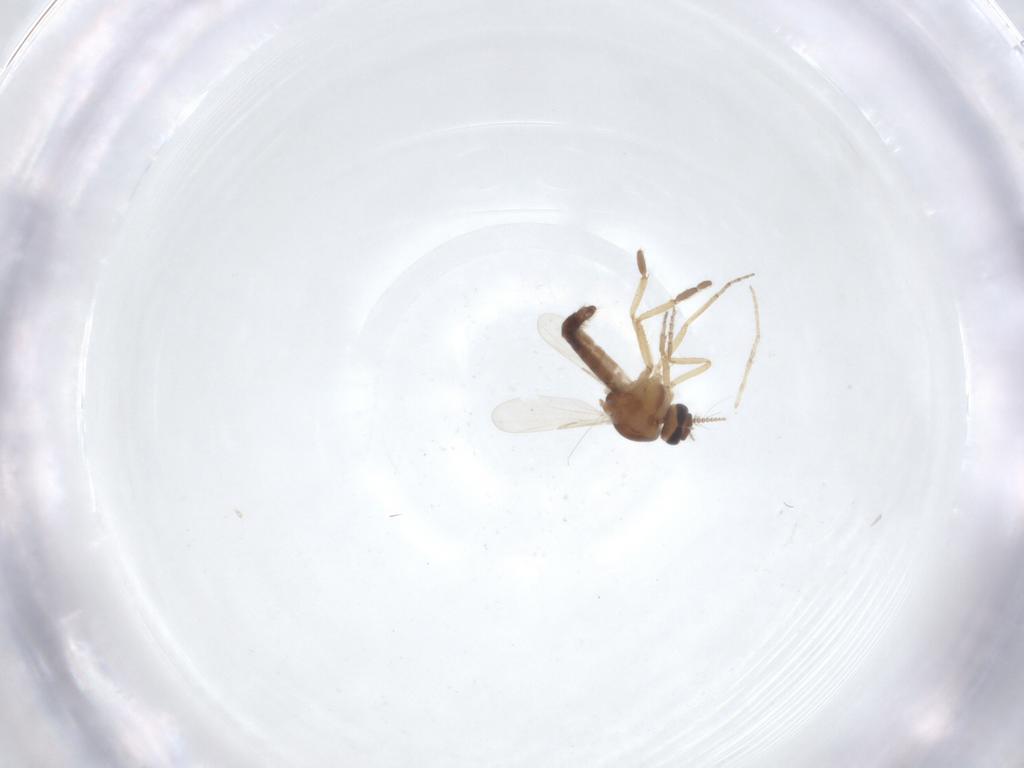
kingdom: Animalia
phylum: Arthropoda
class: Insecta
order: Diptera
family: Ceratopogonidae
